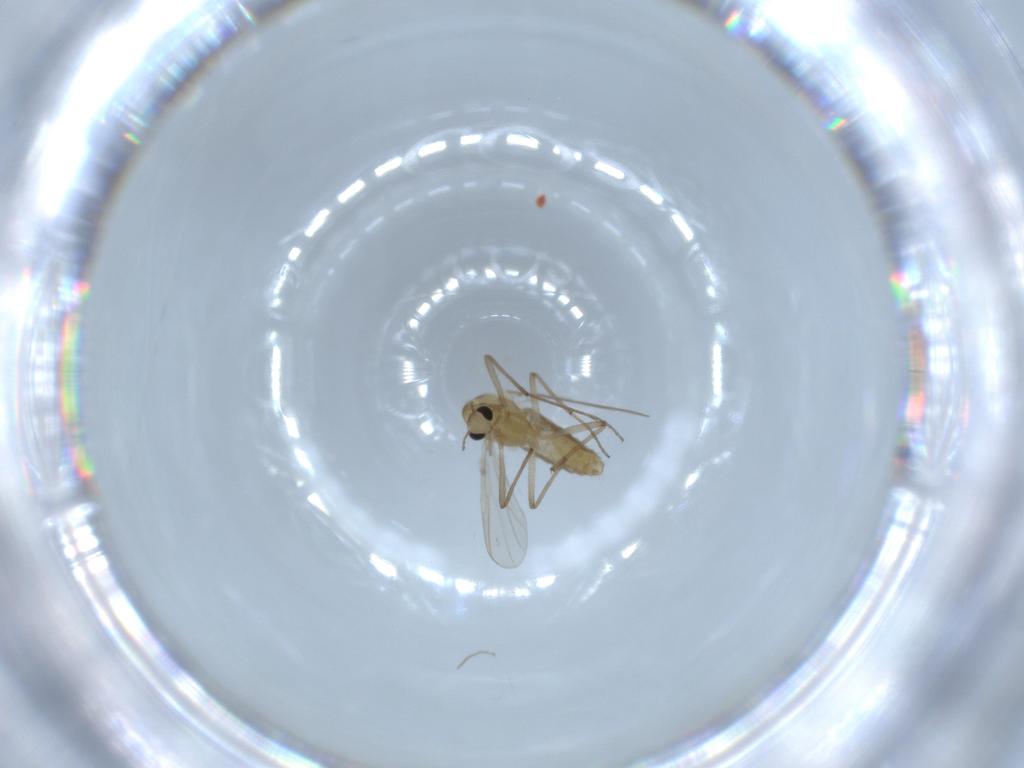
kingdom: Animalia
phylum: Arthropoda
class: Insecta
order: Diptera
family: Chironomidae
